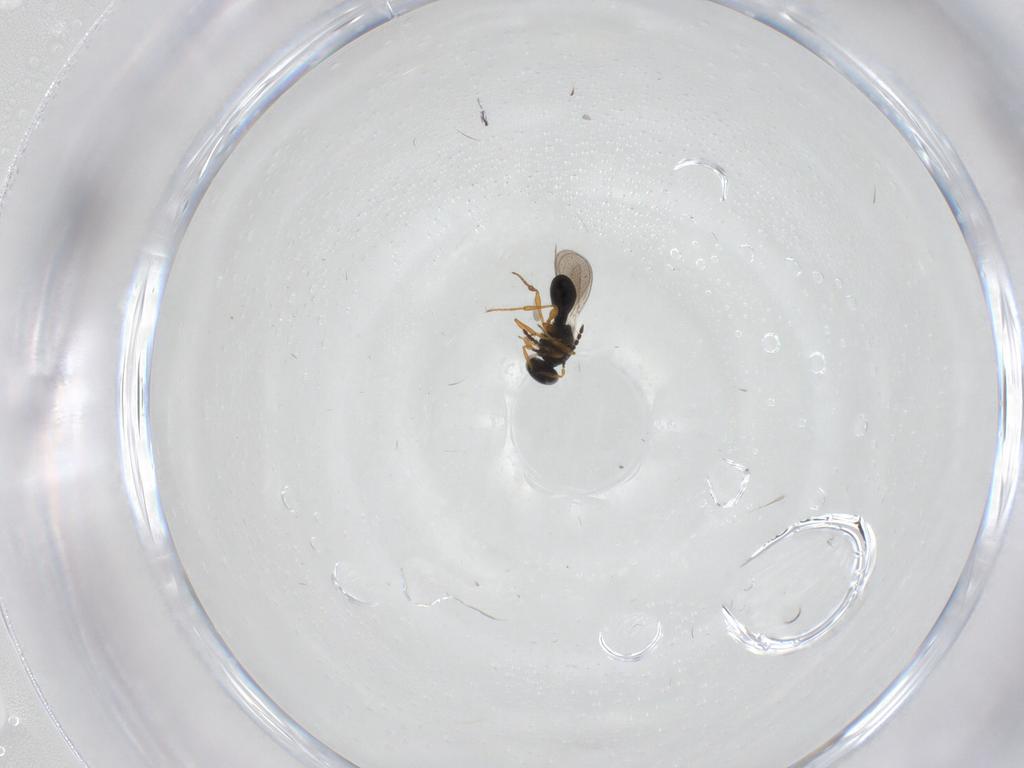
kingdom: Animalia
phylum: Arthropoda
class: Insecta
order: Hymenoptera
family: Platygastridae
